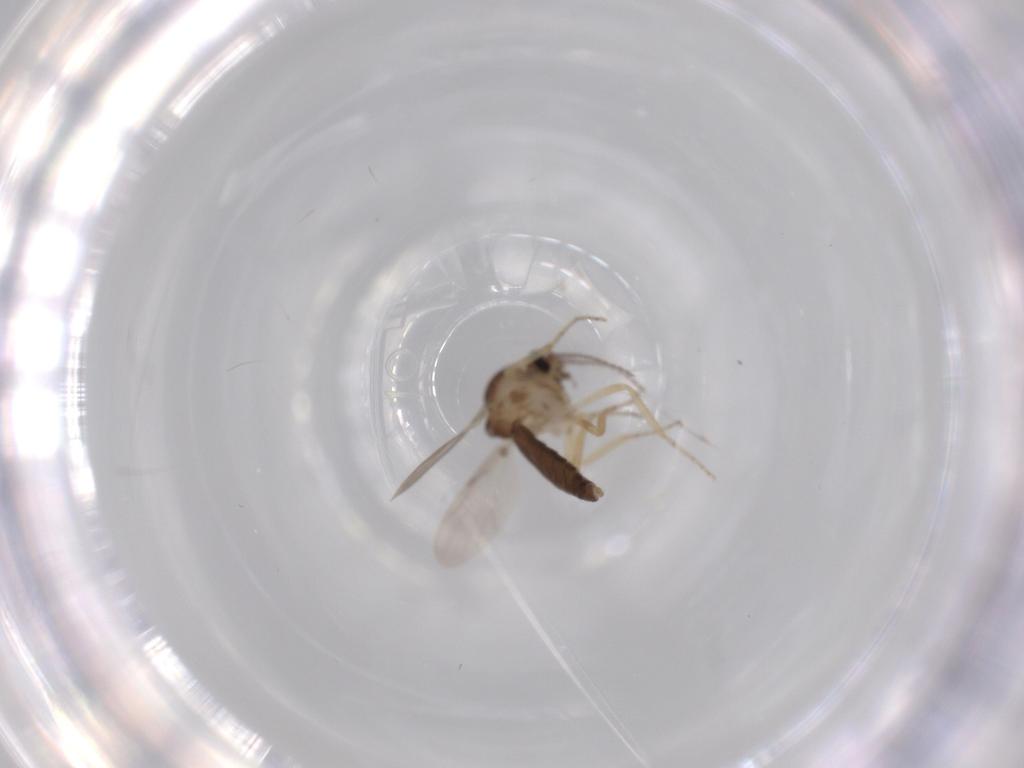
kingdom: Animalia
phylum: Arthropoda
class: Insecta
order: Diptera
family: Ceratopogonidae
